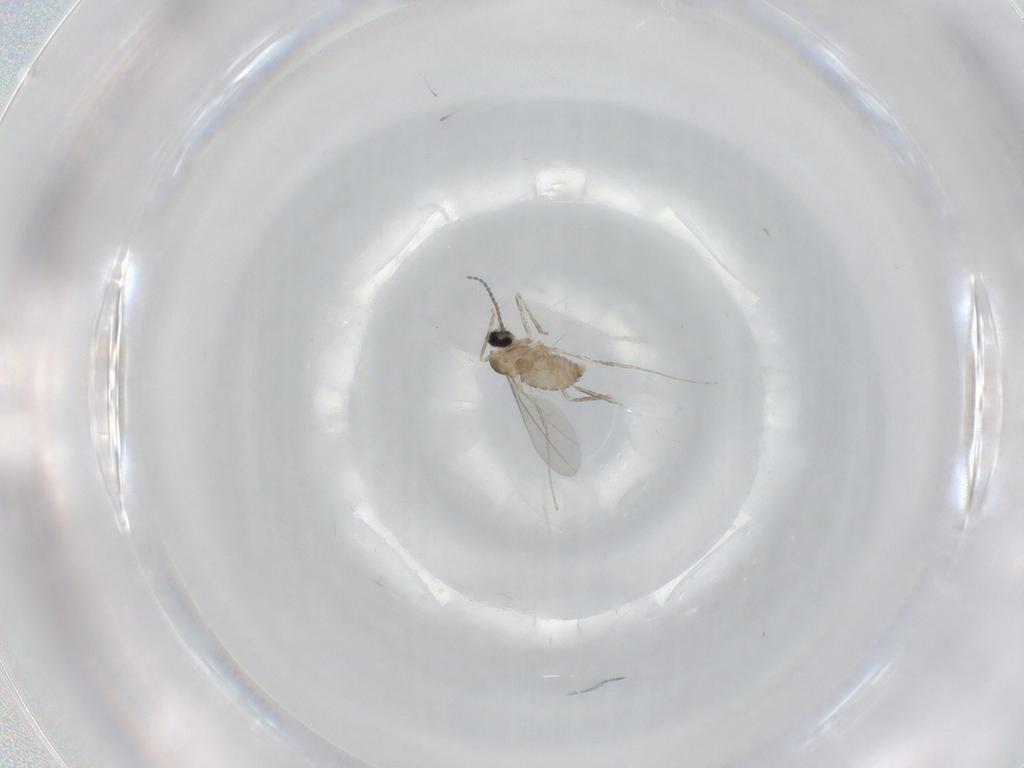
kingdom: Animalia
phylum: Arthropoda
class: Insecta
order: Diptera
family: Cecidomyiidae
